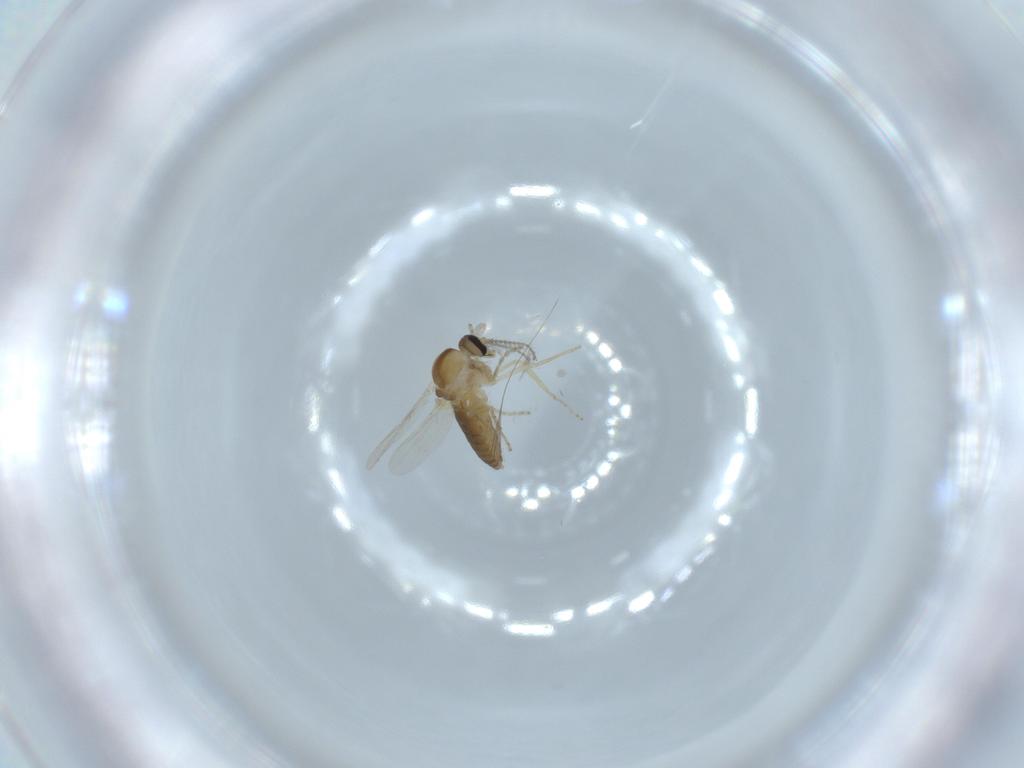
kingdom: Animalia
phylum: Arthropoda
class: Insecta
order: Diptera
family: Ceratopogonidae
